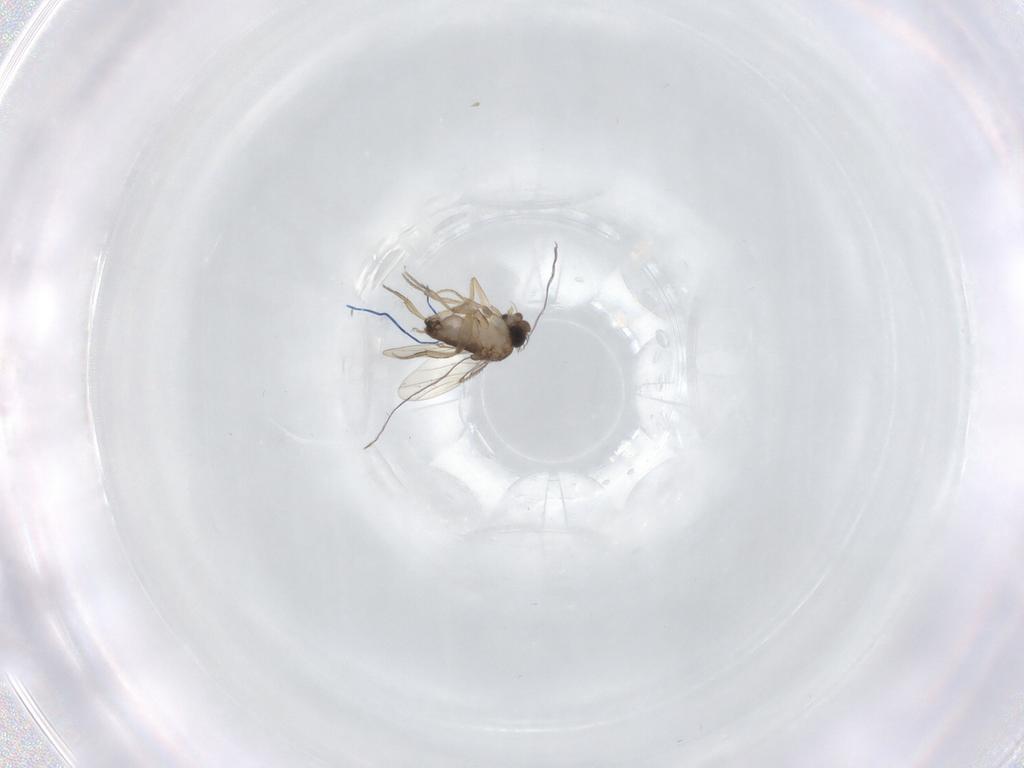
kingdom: Animalia
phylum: Arthropoda
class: Insecta
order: Diptera
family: Phoridae
